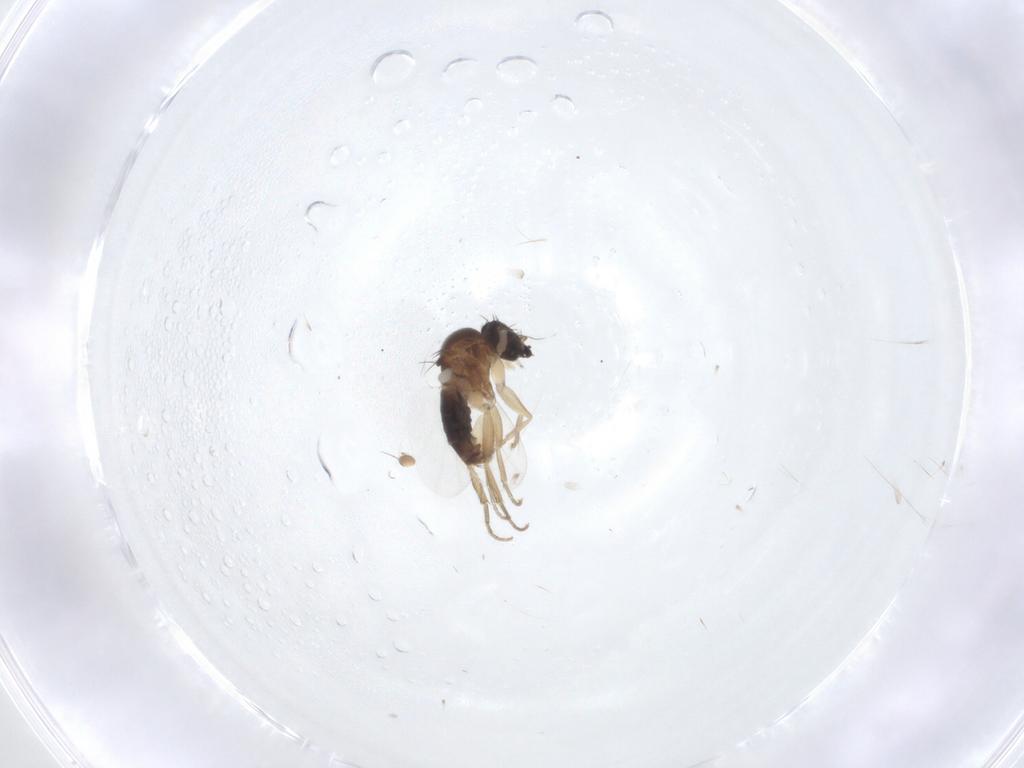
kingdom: Animalia
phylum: Arthropoda
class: Insecta
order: Diptera
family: Phoridae
